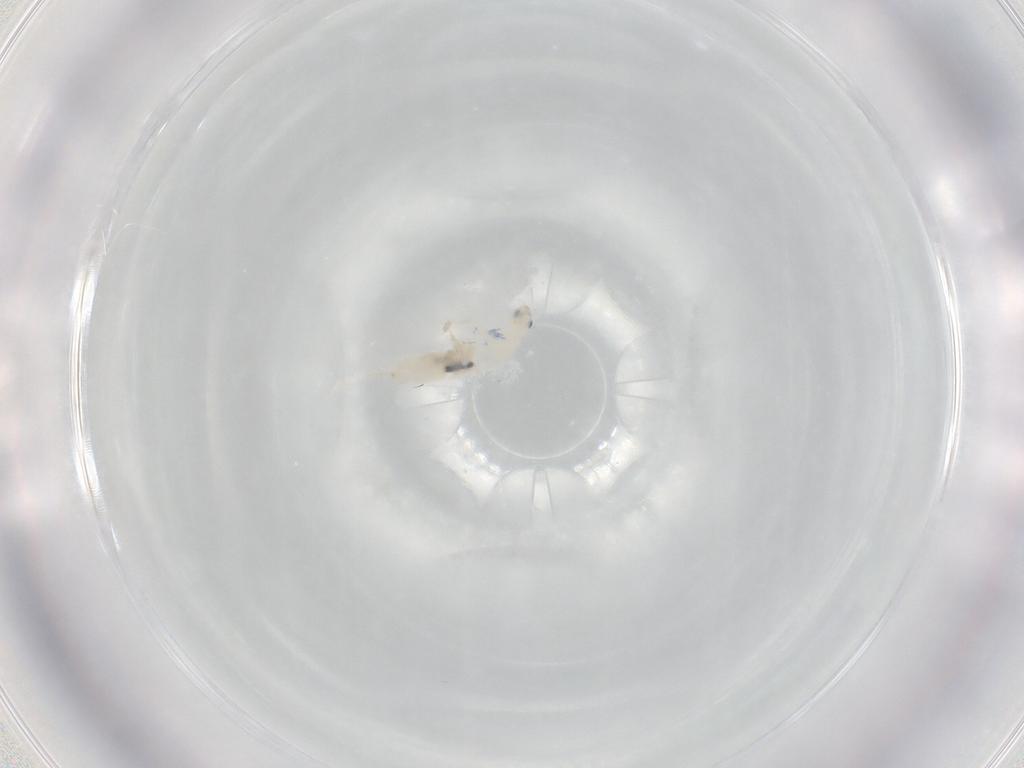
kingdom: Animalia
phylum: Arthropoda
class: Collembola
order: Entomobryomorpha
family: Entomobryidae
